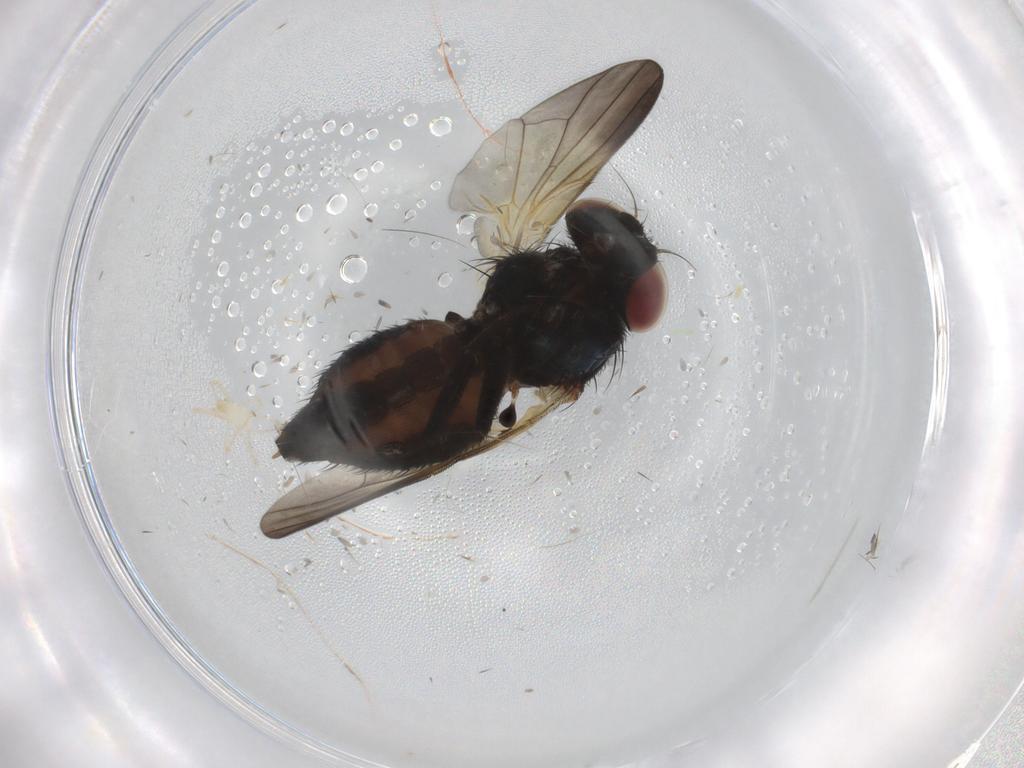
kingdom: Animalia
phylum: Arthropoda
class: Insecta
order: Diptera
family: Lonchaeidae
